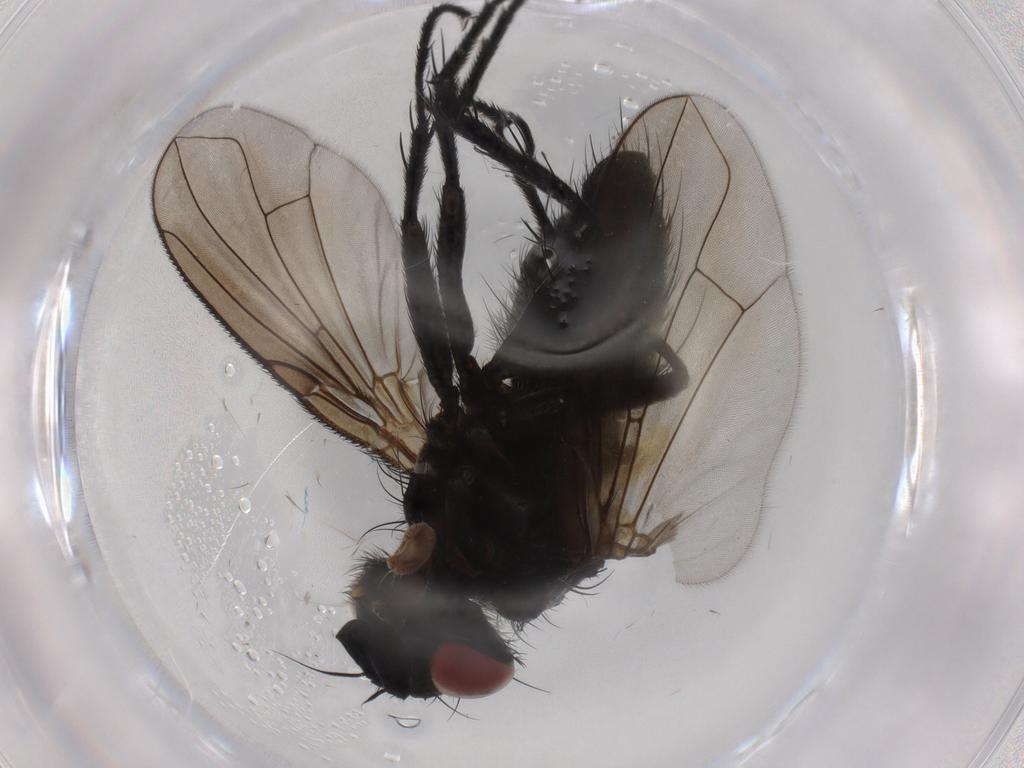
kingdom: Animalia
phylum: Arthropoda
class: Insecta
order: Diptera
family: Tachinidae
